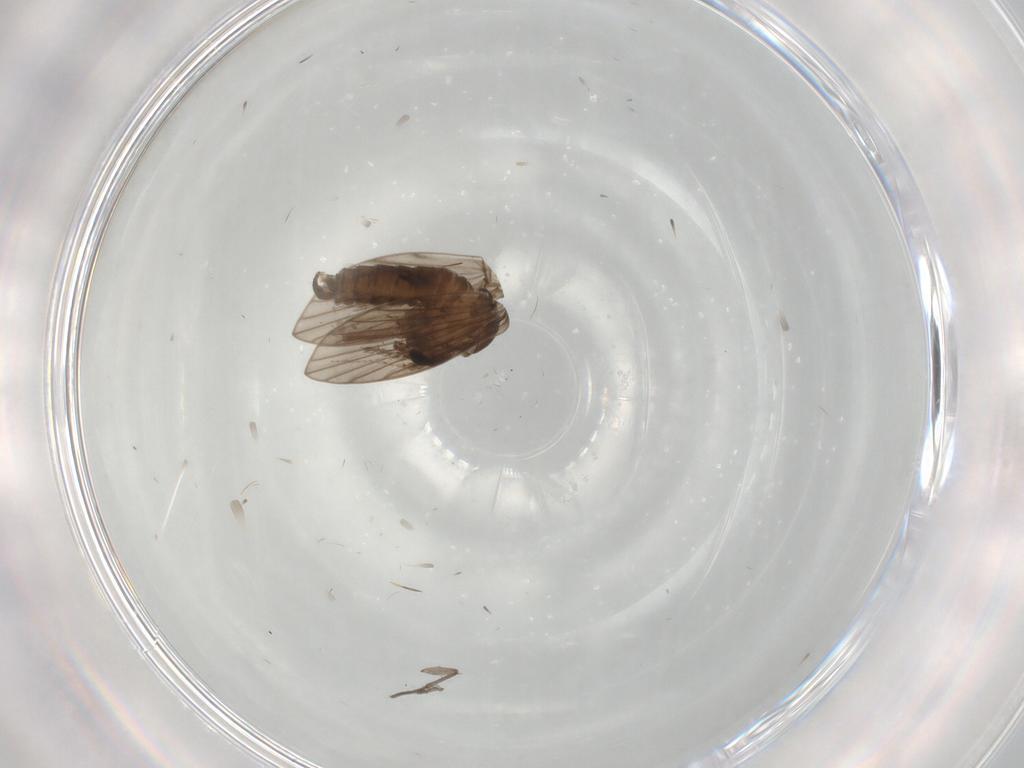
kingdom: Animalia
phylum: Arthropoda
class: Insecta
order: Diptera
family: Psychodidae
